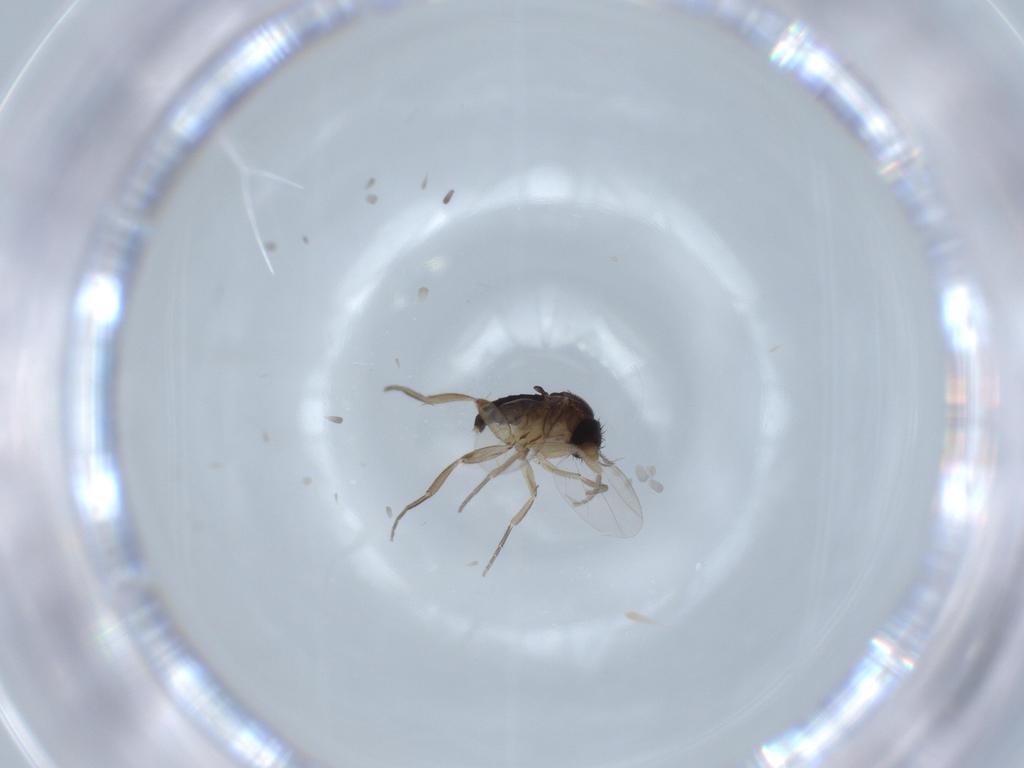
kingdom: Animalia
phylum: Arthropoda
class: Insecta
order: Diptera
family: Phoridae
